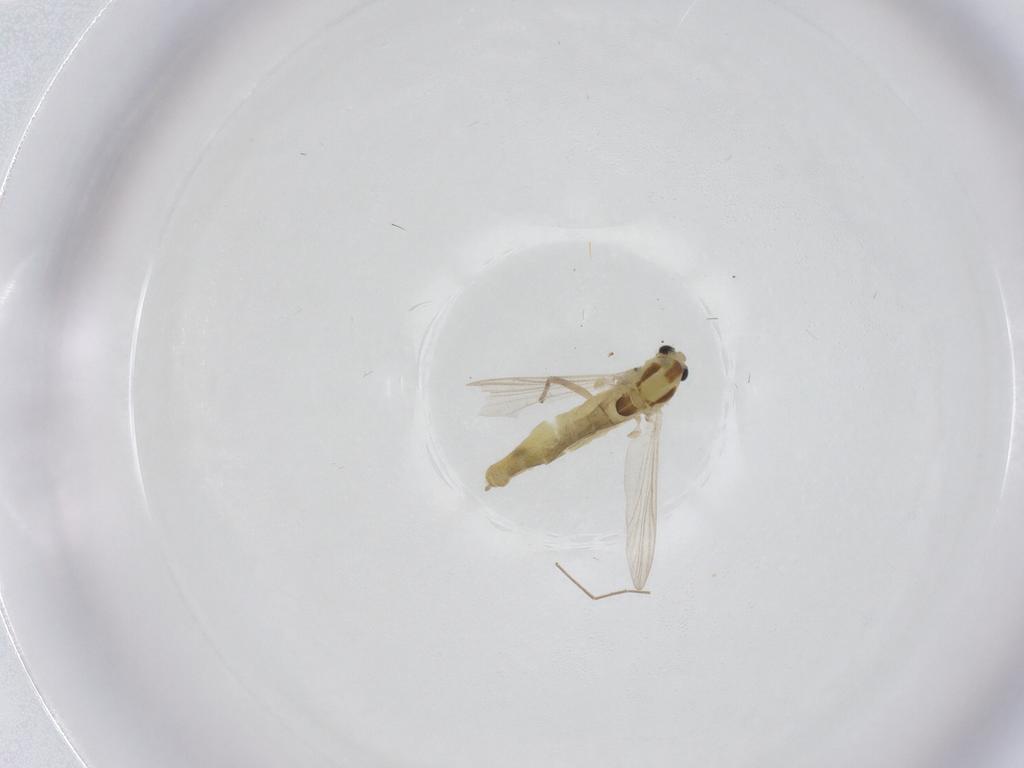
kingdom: Animalia
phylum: Arthropoda
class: Insecta
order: Diptera
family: Chironomidae
